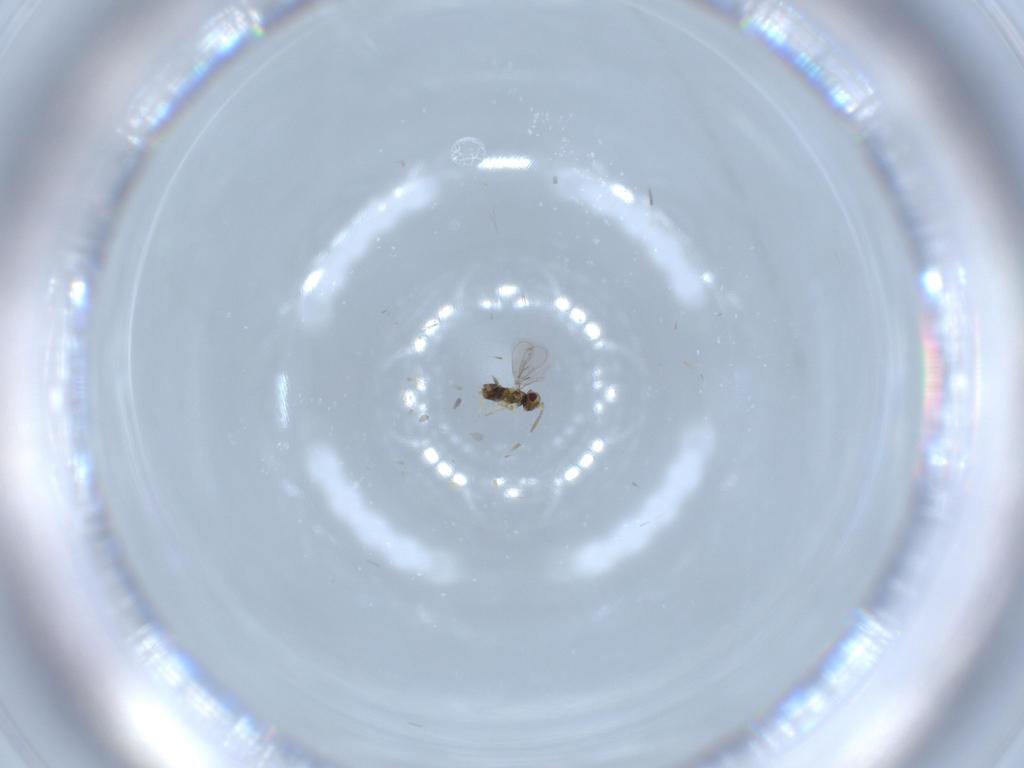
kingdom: Animalia
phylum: Arthropoda
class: Insecta
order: Hymenoptera
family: Aphelinidae
